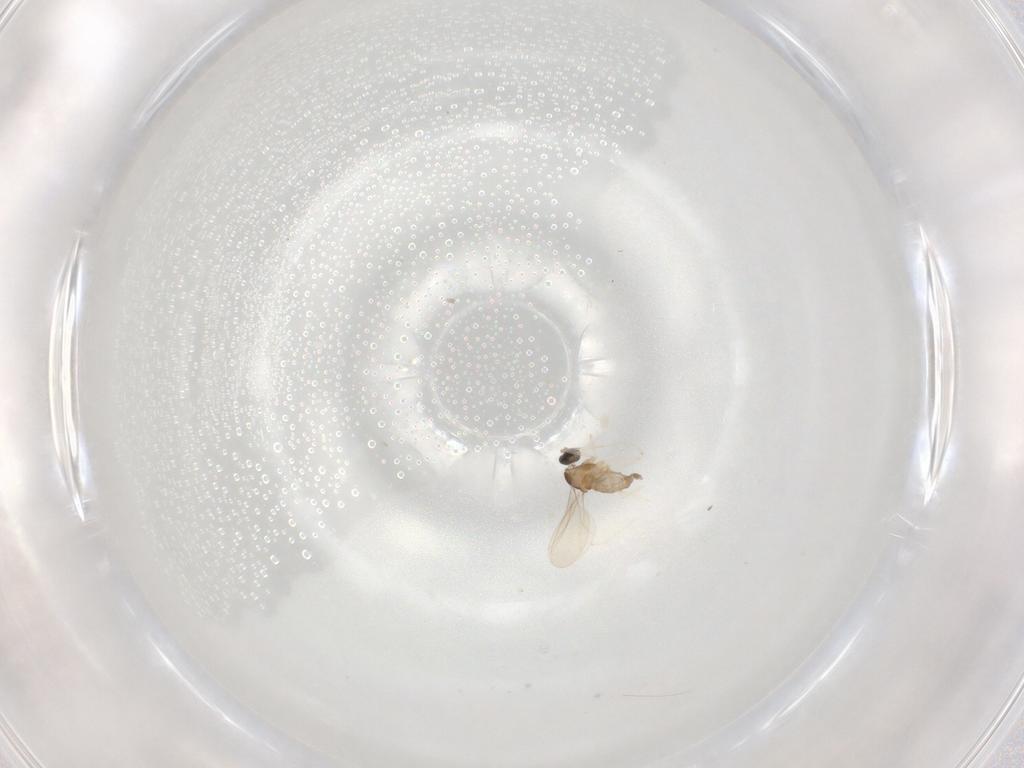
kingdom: Animalia
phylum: Arthropoda
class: Insecta
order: Diptera
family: Cecidomyiidae
